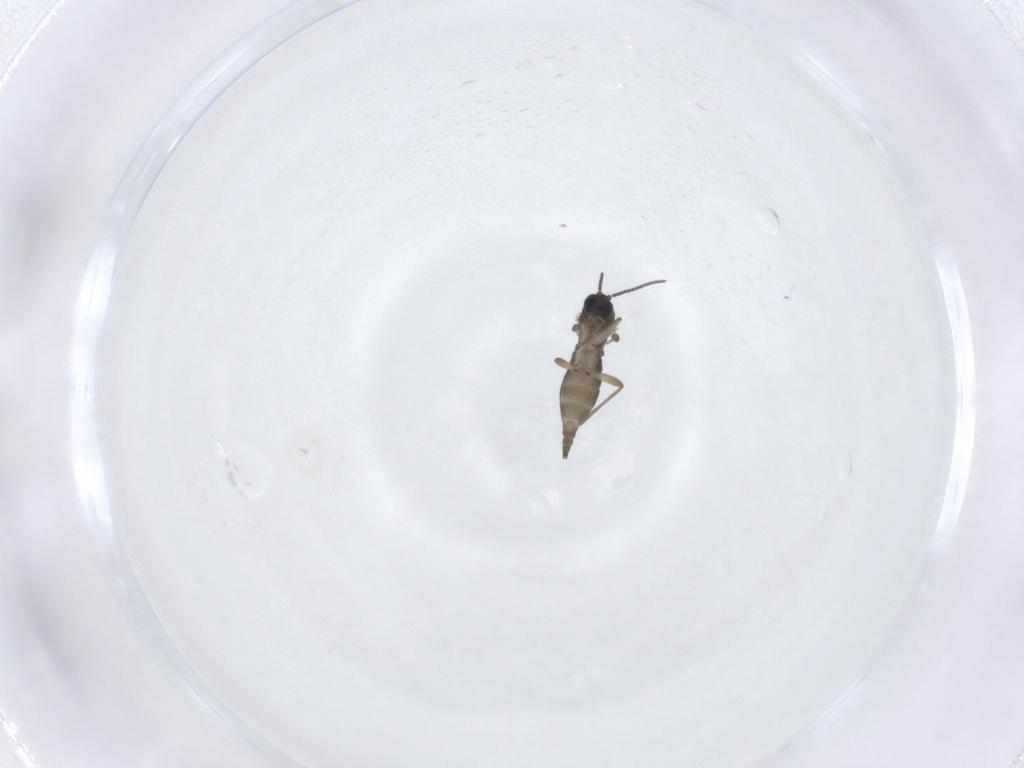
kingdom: Animalia
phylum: Arthropoda
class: Insecta
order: Diptera
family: Sciaridae
